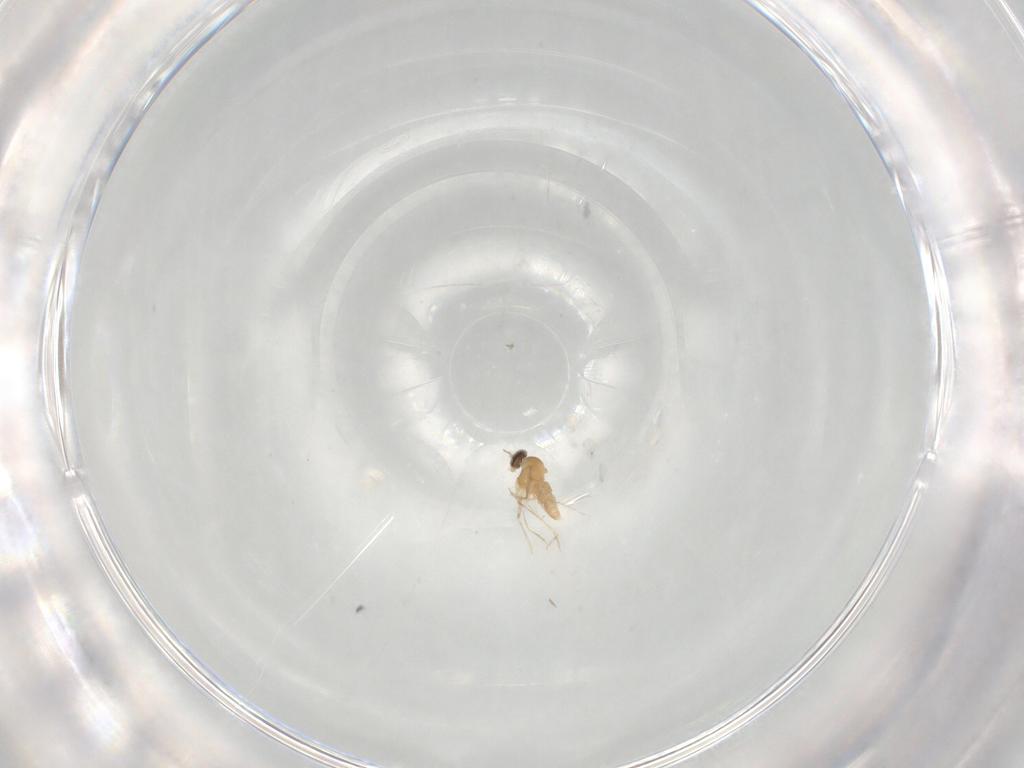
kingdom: Animalia
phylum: Arthropoda
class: Insecta
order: Diptera
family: Cecidomyiidae
